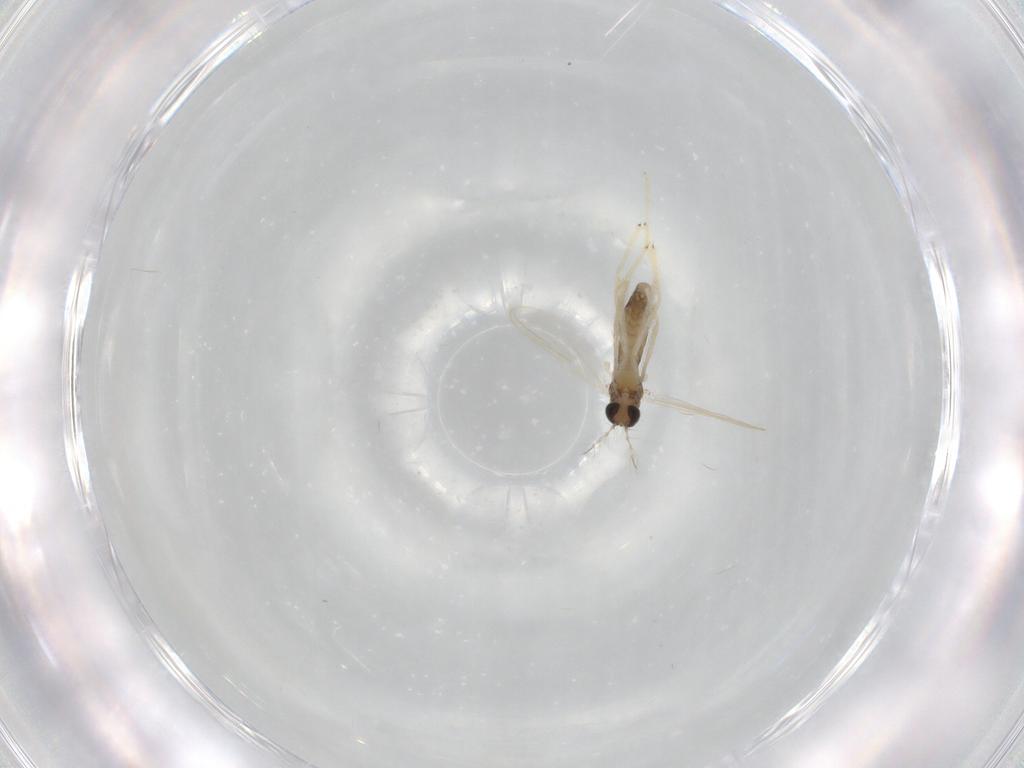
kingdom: Animalia
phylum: Arthropoda
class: Insecta
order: Diptera
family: Chironomidae
